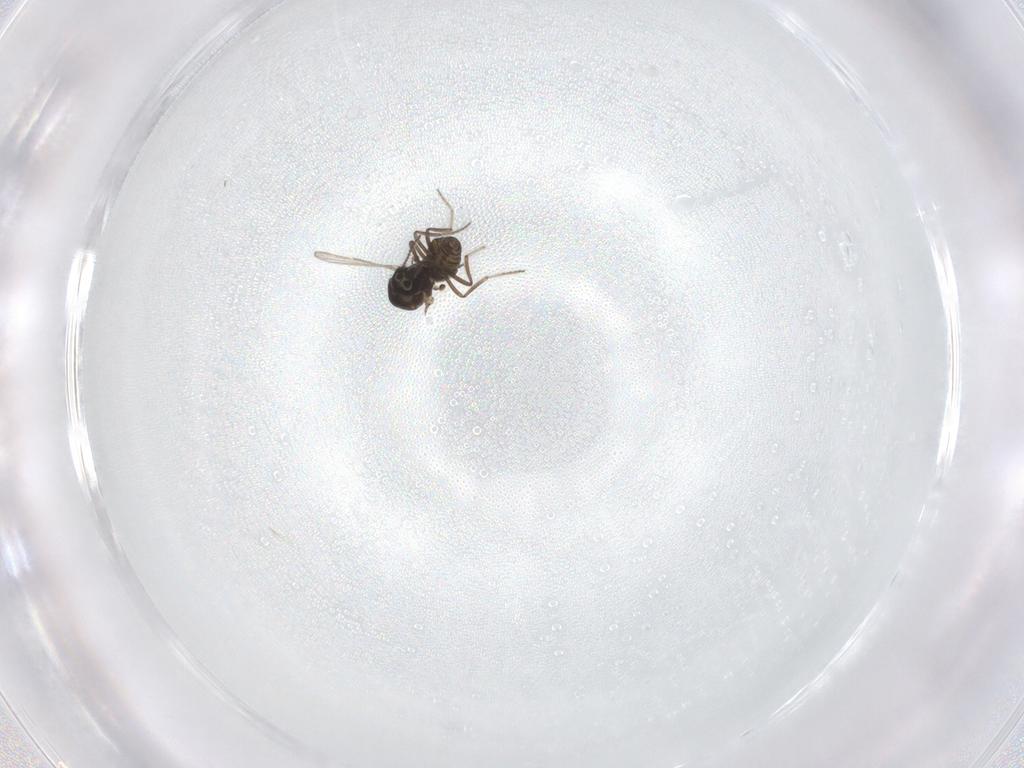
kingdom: Animalia
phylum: Arthropoda
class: Insecta
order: Diptera
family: Ceratopogonidae
